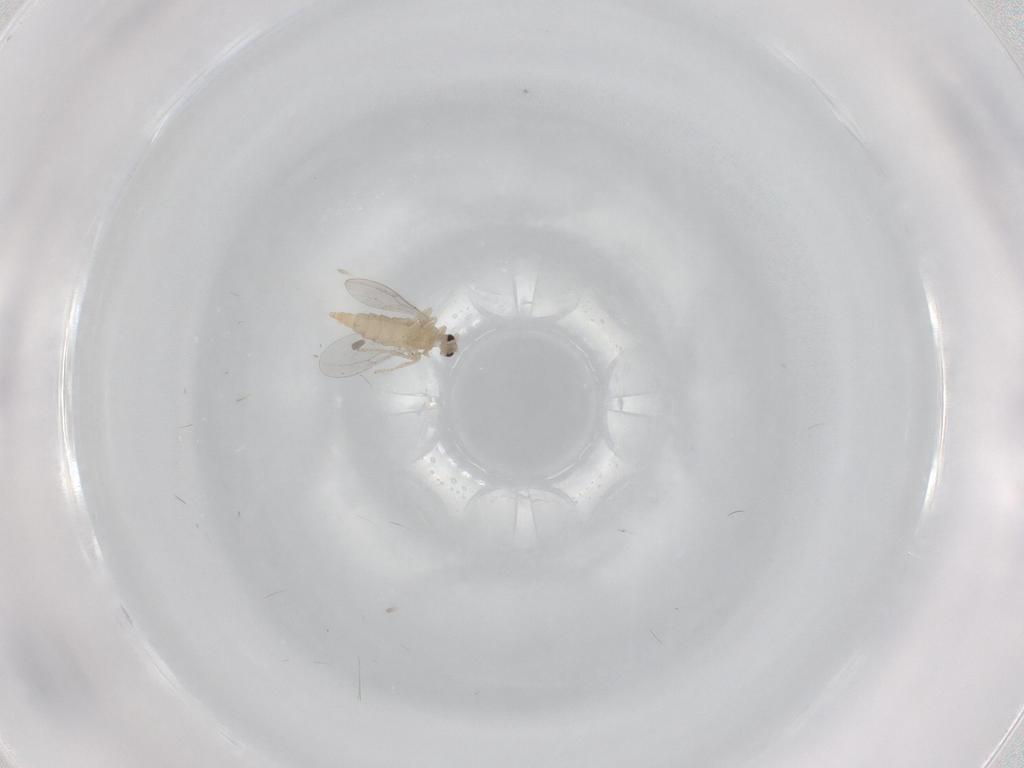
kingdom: Animalia
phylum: Arthropoda
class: Insecta
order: Diptera
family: Cecidomyiidae
